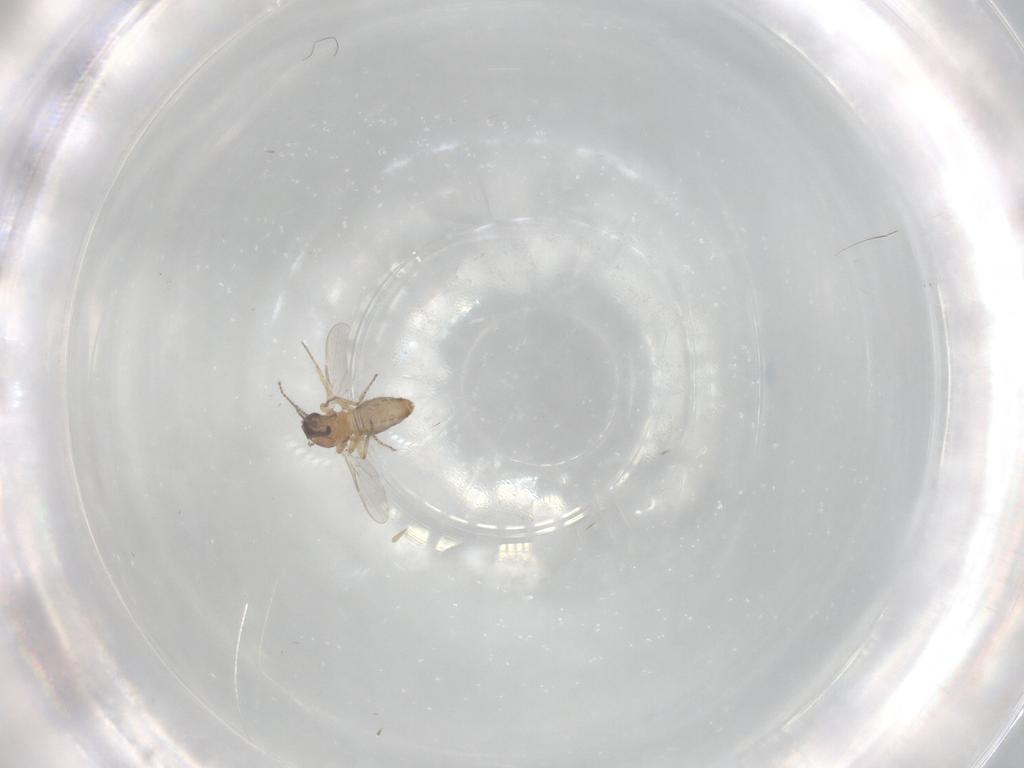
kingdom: Animalia
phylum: Arthropoda
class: Insecta
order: Diptera
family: Ceratopogonidae
